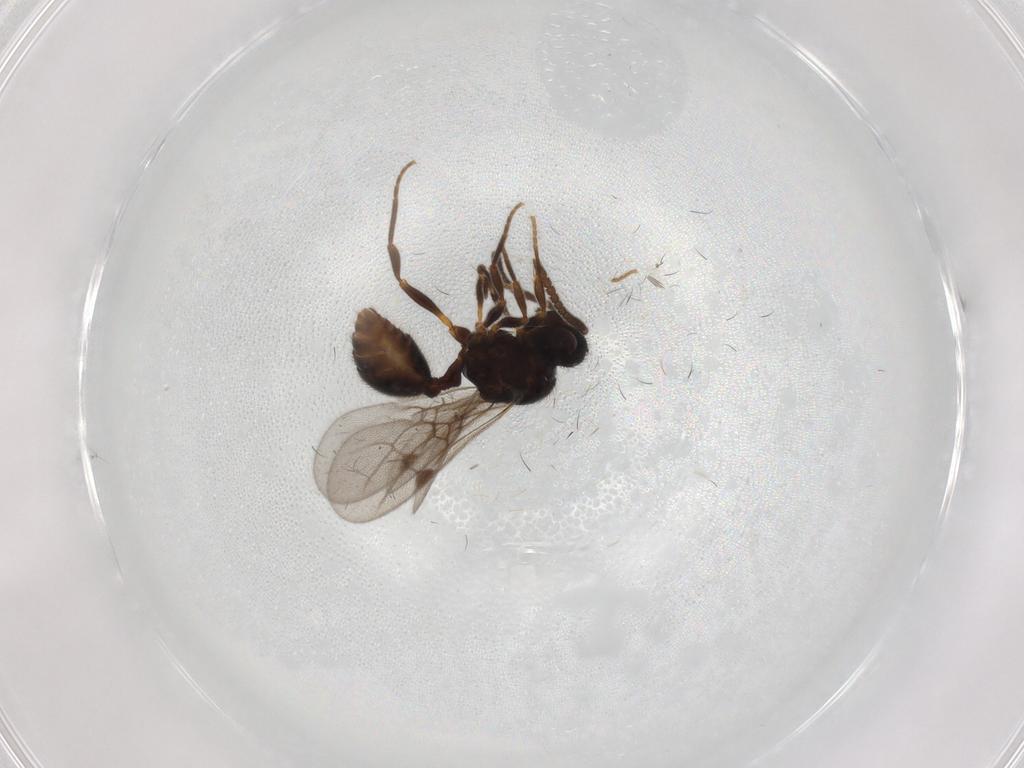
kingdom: Animalia
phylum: Arthropoda
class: Insecta
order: Hymenoptera
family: Formicidae
